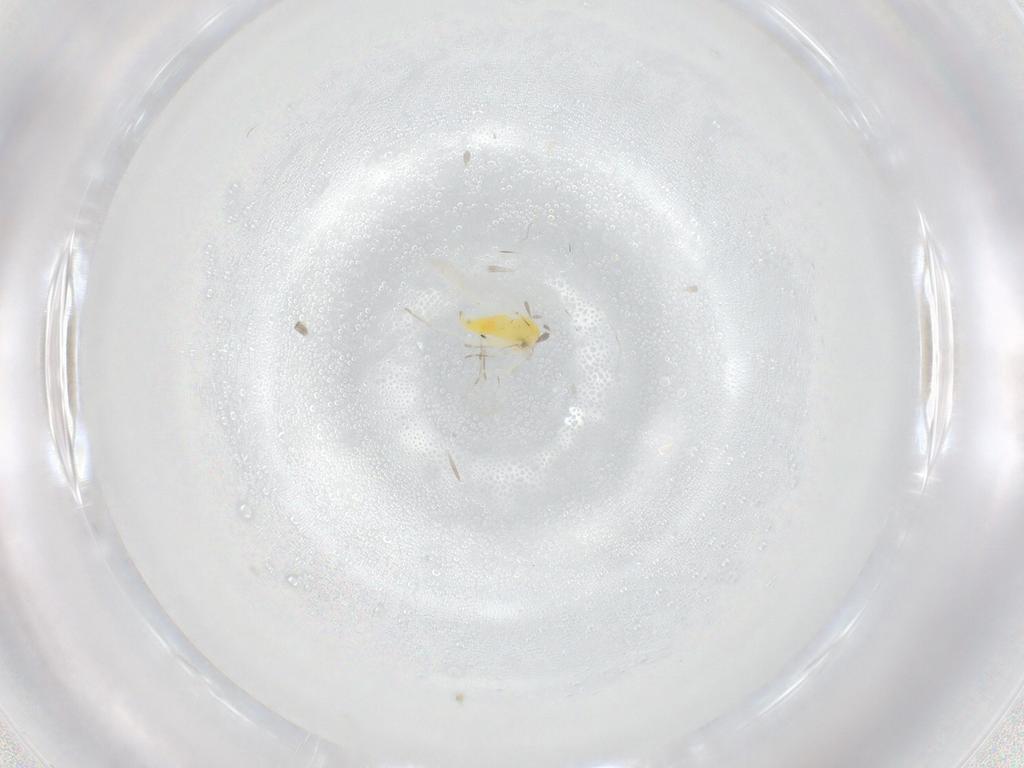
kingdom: Animalia
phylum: Arthropoda
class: Insecta
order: Hemiptera
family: Aleyrodidae
